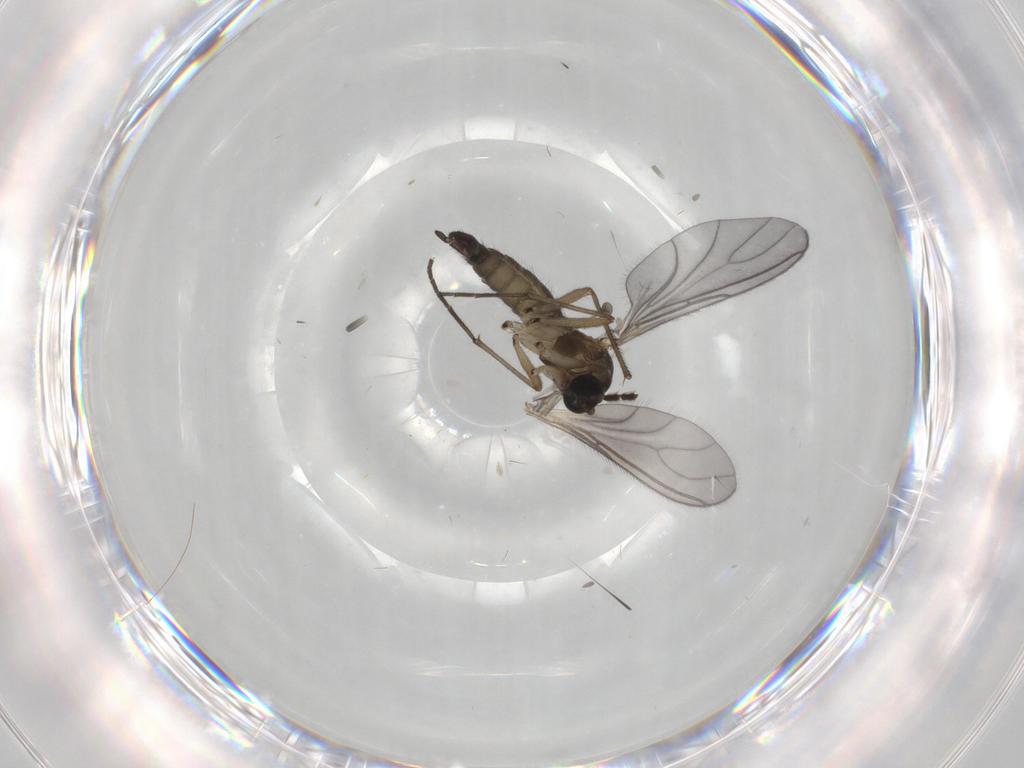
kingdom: Animalia
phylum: Arthropoda
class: Insecta
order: Diptera
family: Sciaridae
